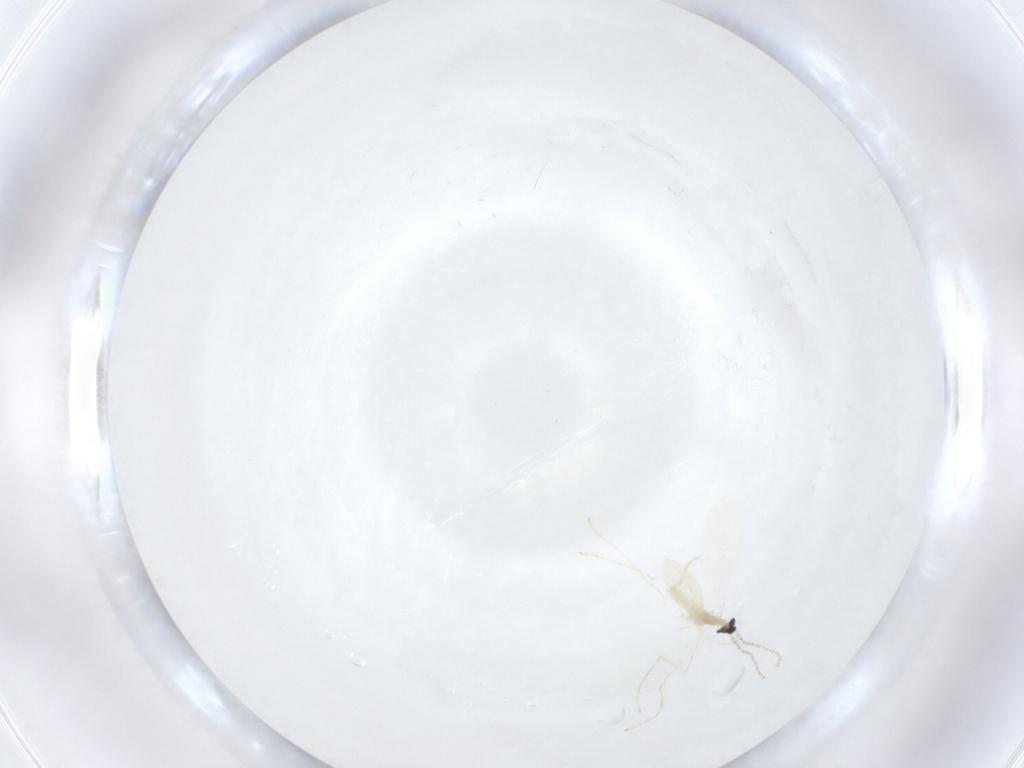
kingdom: Animalia
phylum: Arthropoda
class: Insecta
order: Diptera
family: Cecidomyiidae
